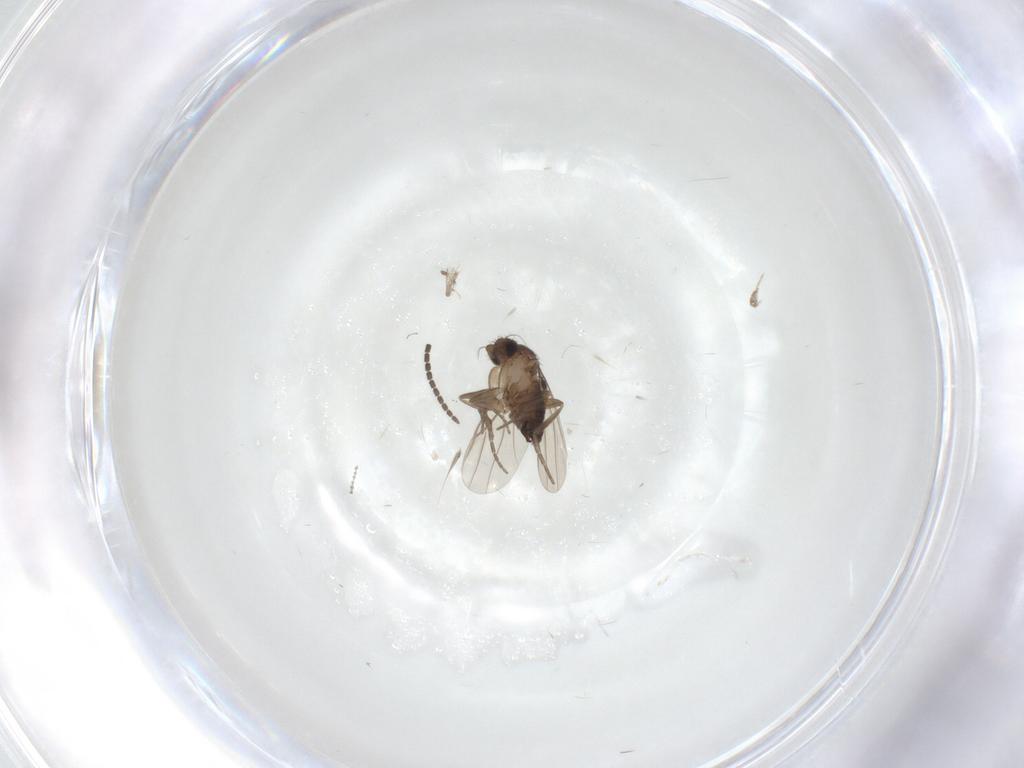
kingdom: Animalia
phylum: Arthropoda
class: Insecta
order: Diptera
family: Phoridae
